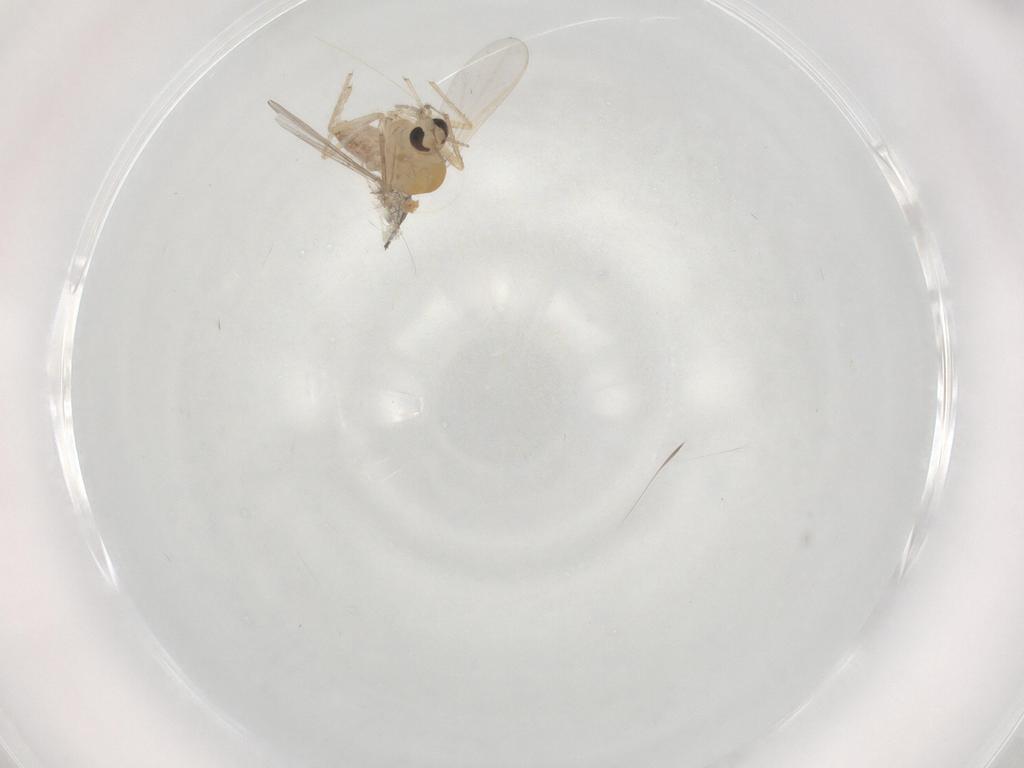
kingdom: Animalia
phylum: Arthropoda
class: Insecta
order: Diptera
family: Chironomidae
